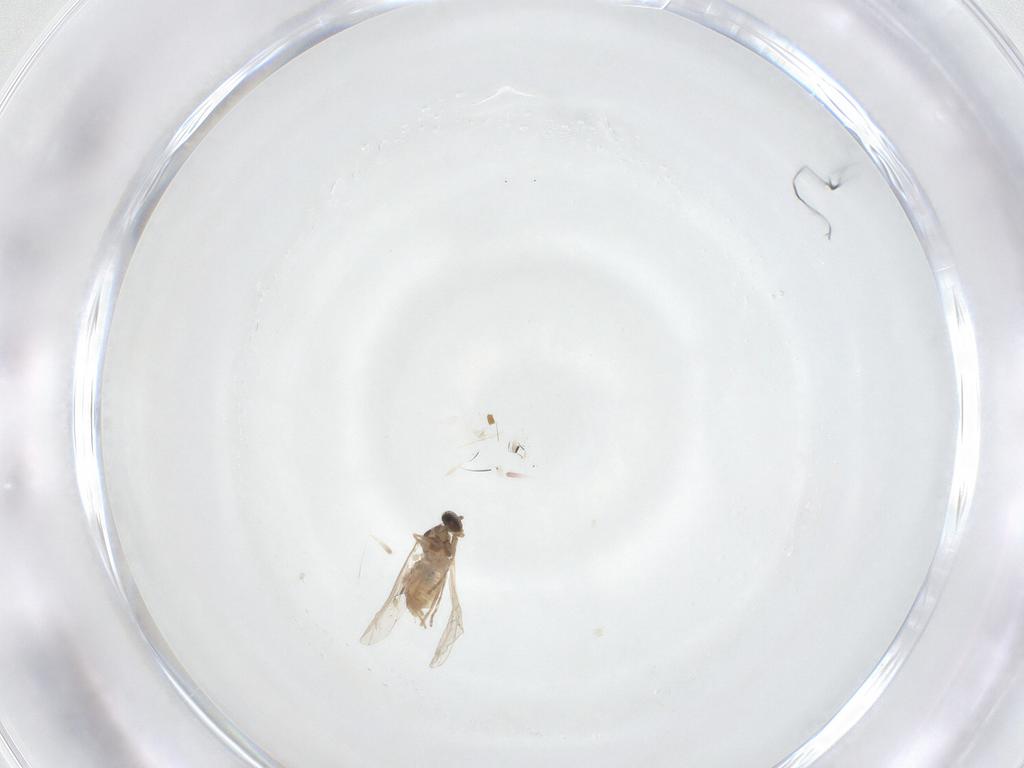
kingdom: Animalia
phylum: Arthropoda
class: Insecta
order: Diptera
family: Cecidomyiidae
